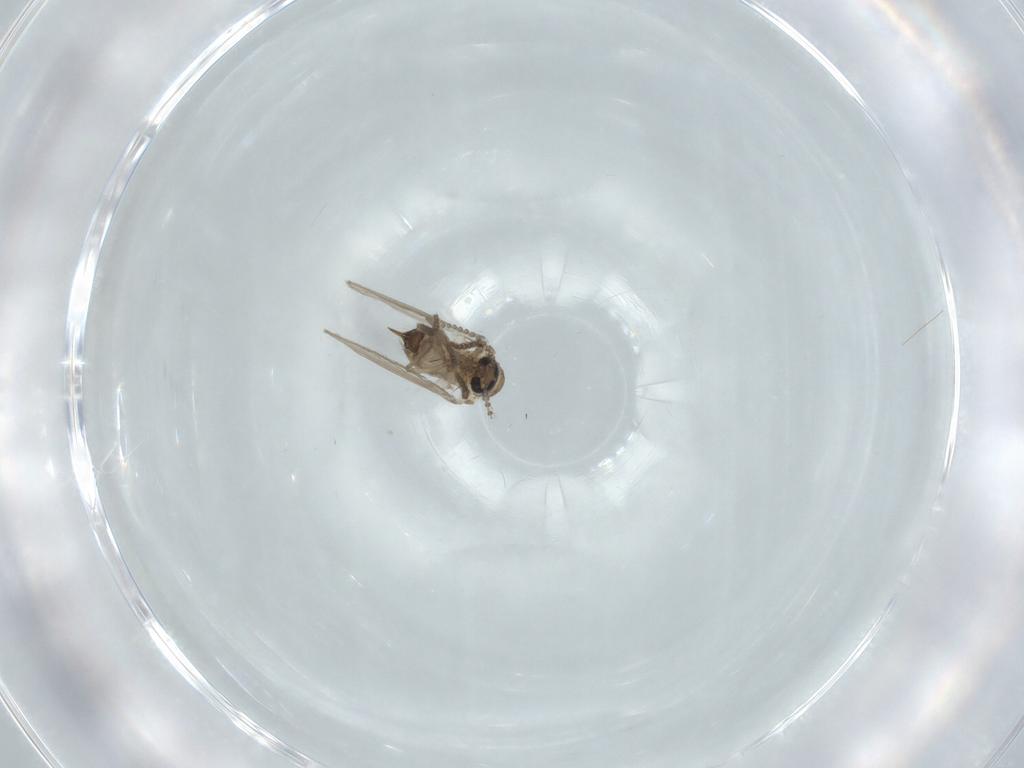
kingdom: Animalia
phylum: Arthropoda
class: Insecta
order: Diptera
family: Psychodidae
